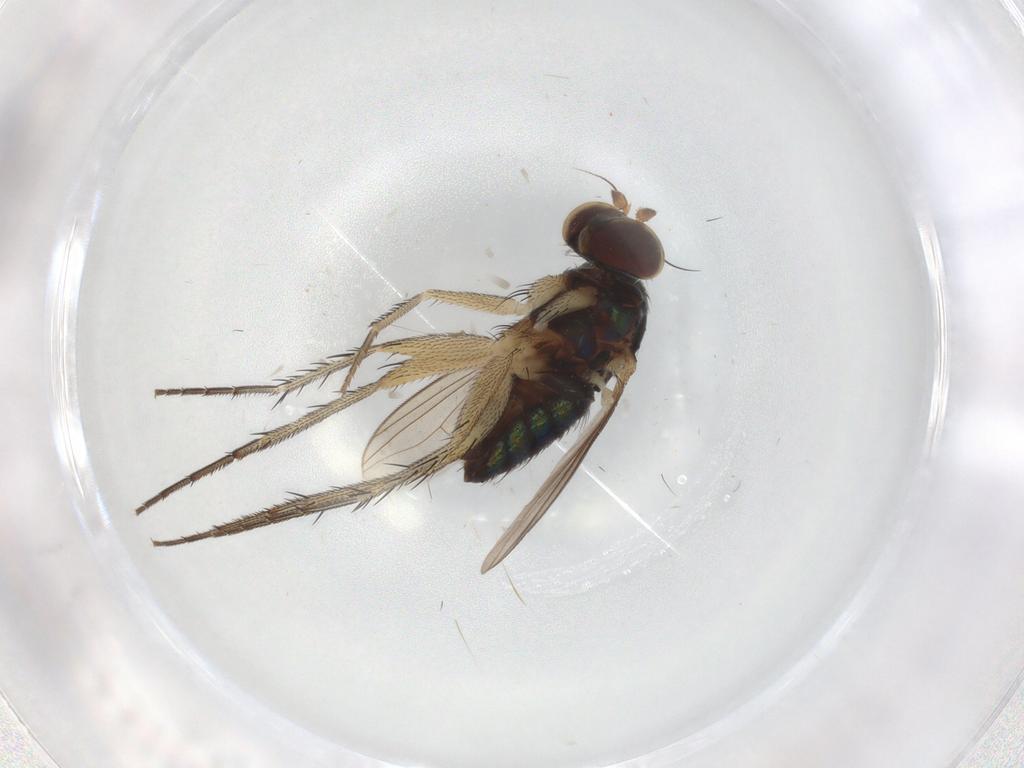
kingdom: Animalia
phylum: Arthropoda
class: Insecta
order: Diptera
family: Dolichopodidae
